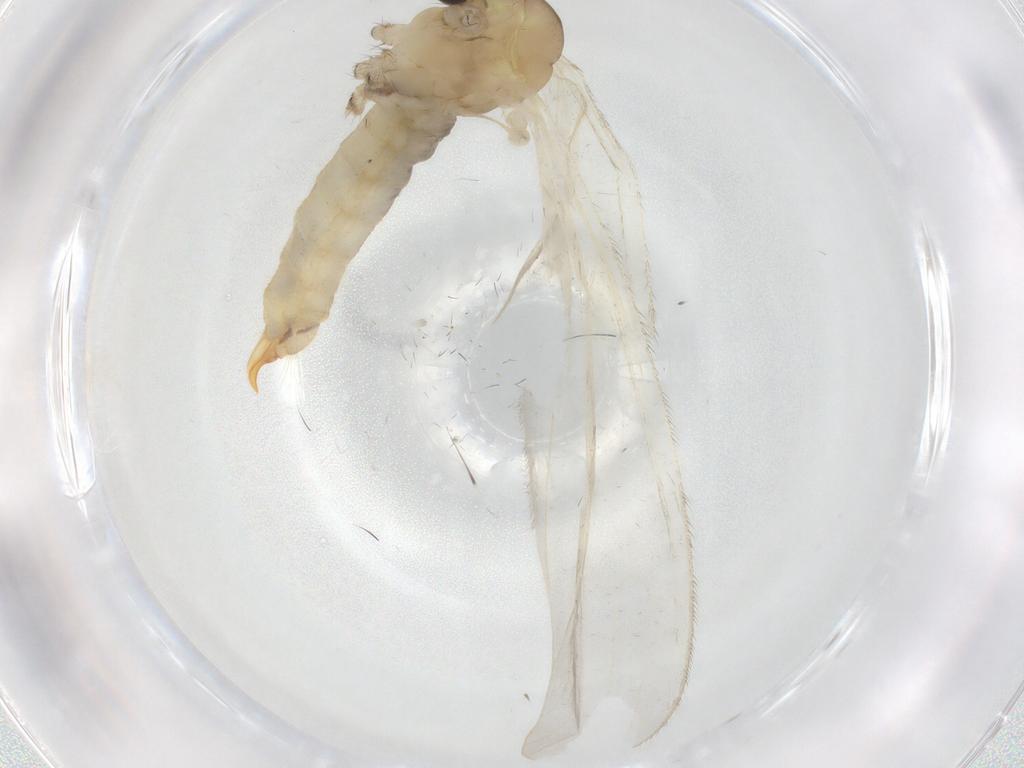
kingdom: Animalia
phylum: Arthropoda
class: Insecta
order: Diptera
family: Limoniidae
